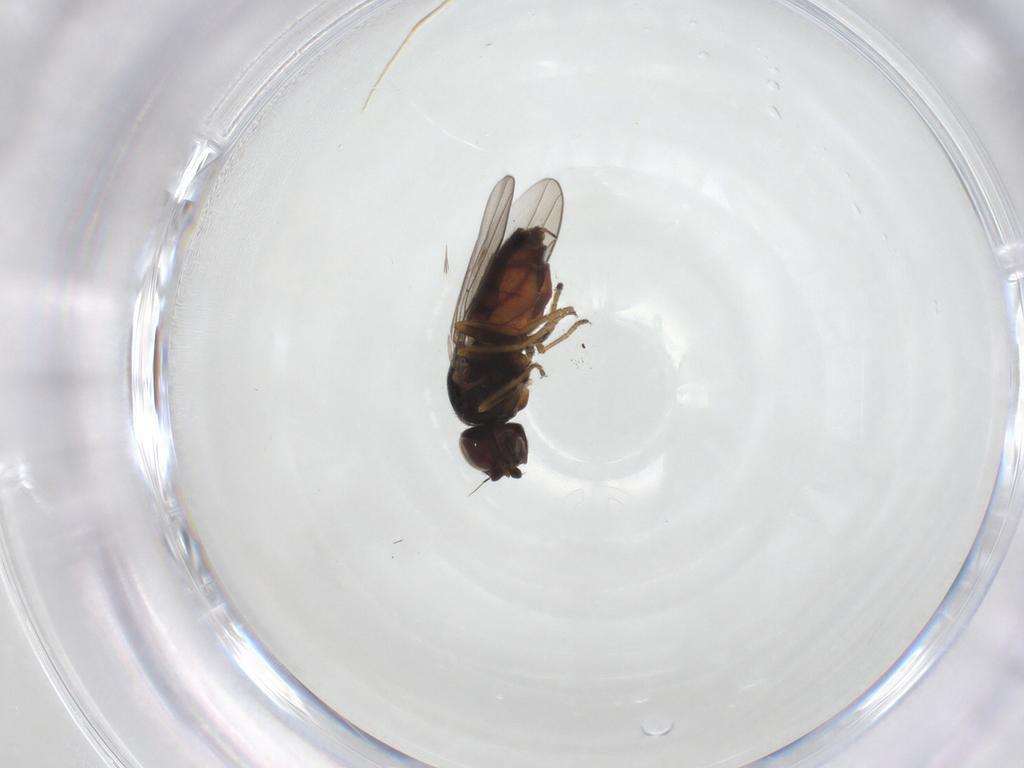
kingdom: Animalia
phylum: Arthropoda
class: Insecta
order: Diptera
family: Chloropidae
